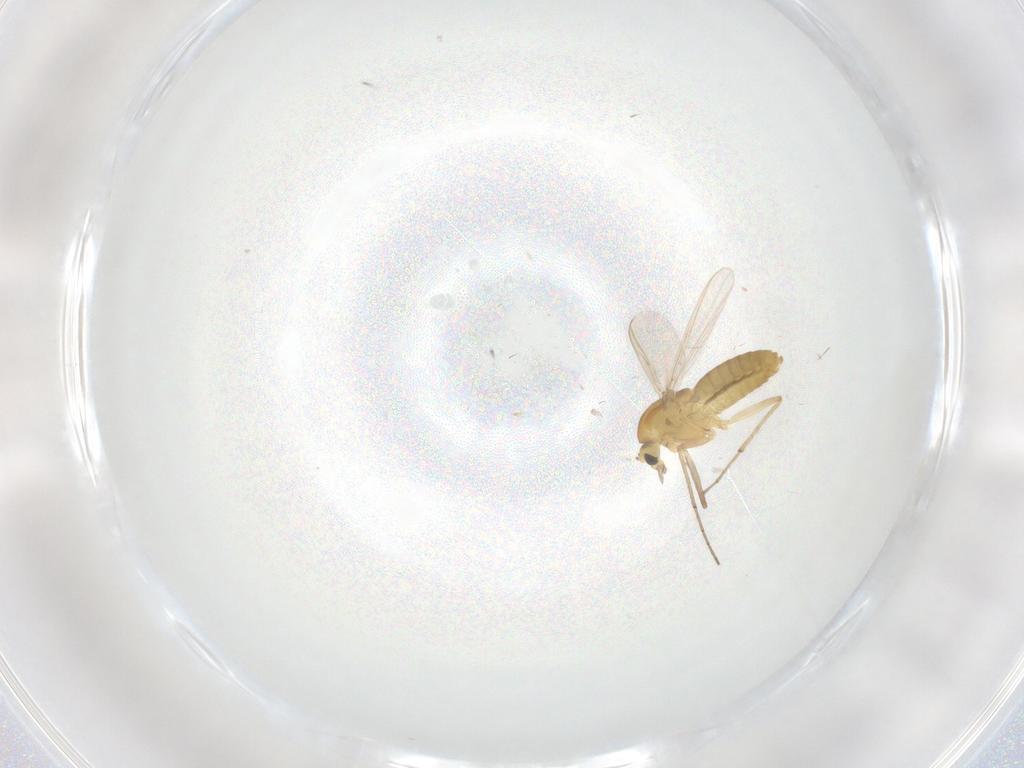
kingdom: Animalia
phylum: Arthropoda
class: Insecta
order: Diptera
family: Chironomidae
